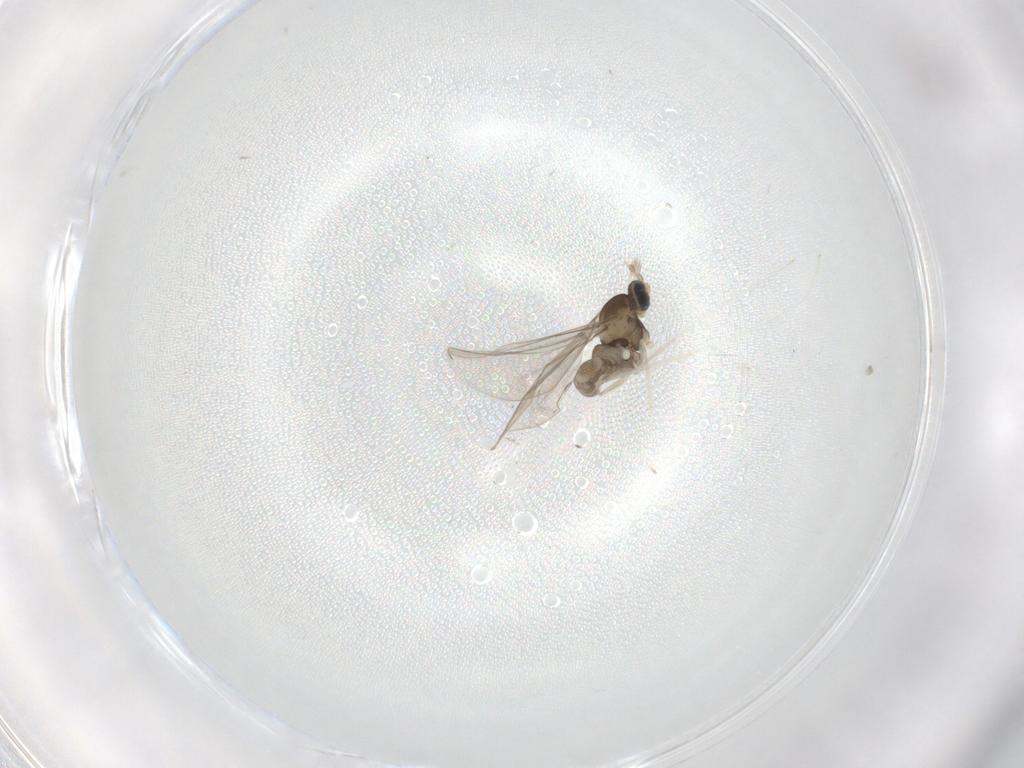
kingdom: Animalia
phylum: Arthropoda
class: Insecta
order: Diptera
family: Cecidomyiidae
